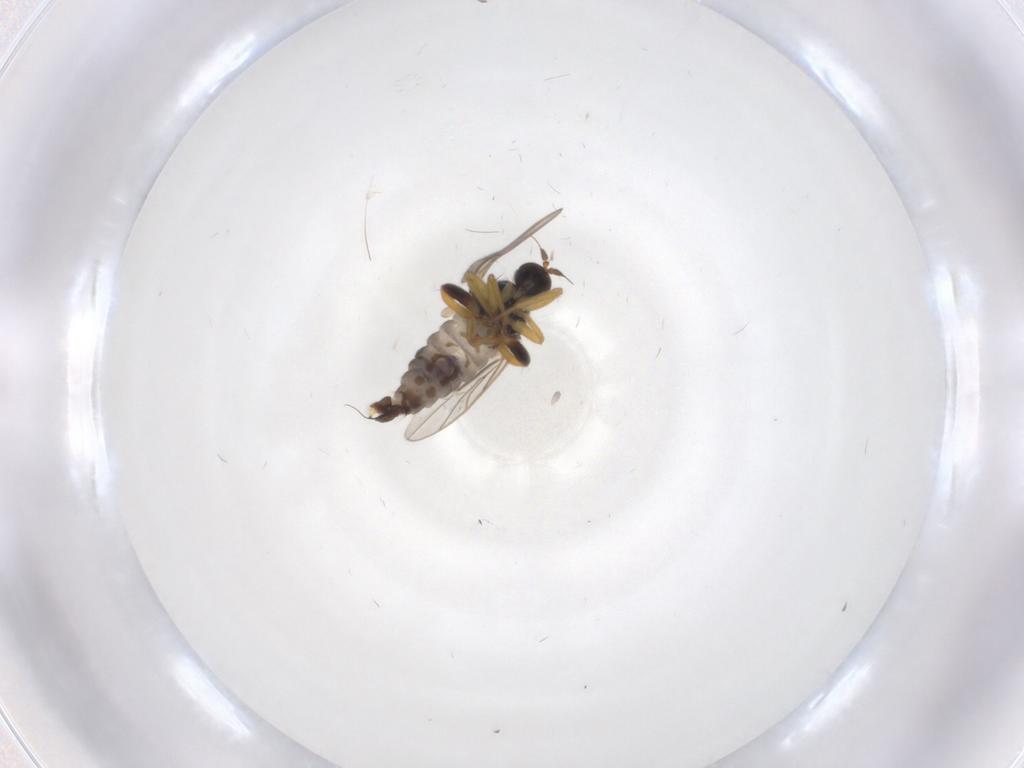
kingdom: Animalia
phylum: Arthropoda
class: Insecta
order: Diptera
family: Hybotidae
